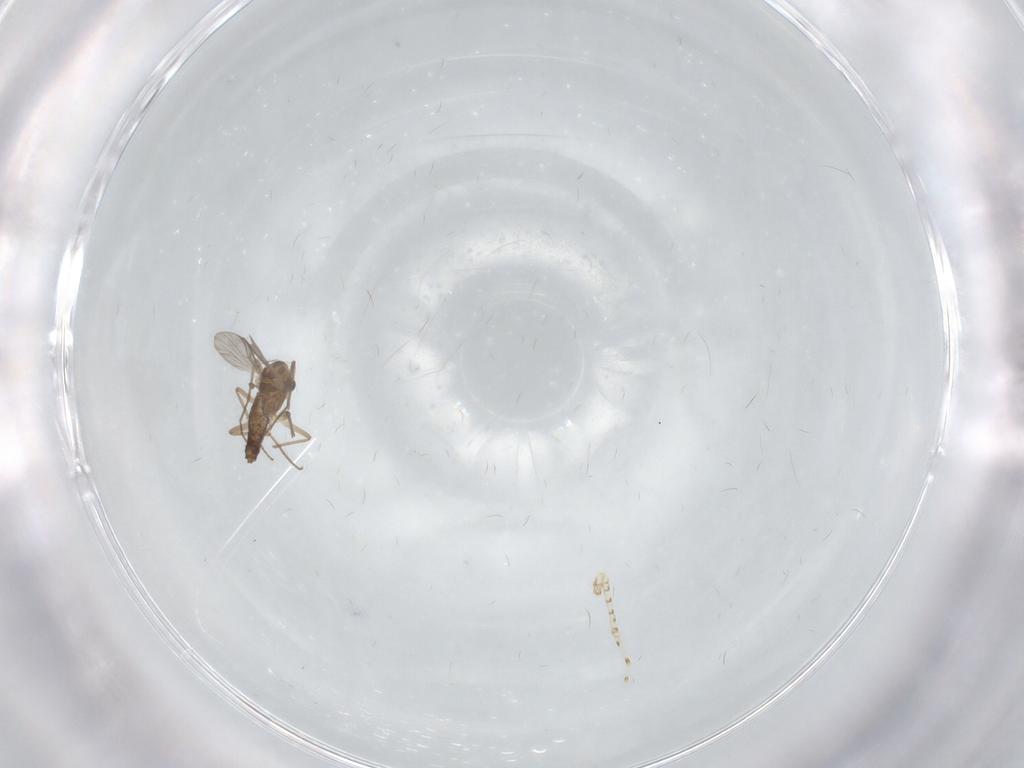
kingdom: Animalia
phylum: Arthropoda
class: Insecta
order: Diptera
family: Chironomidae
